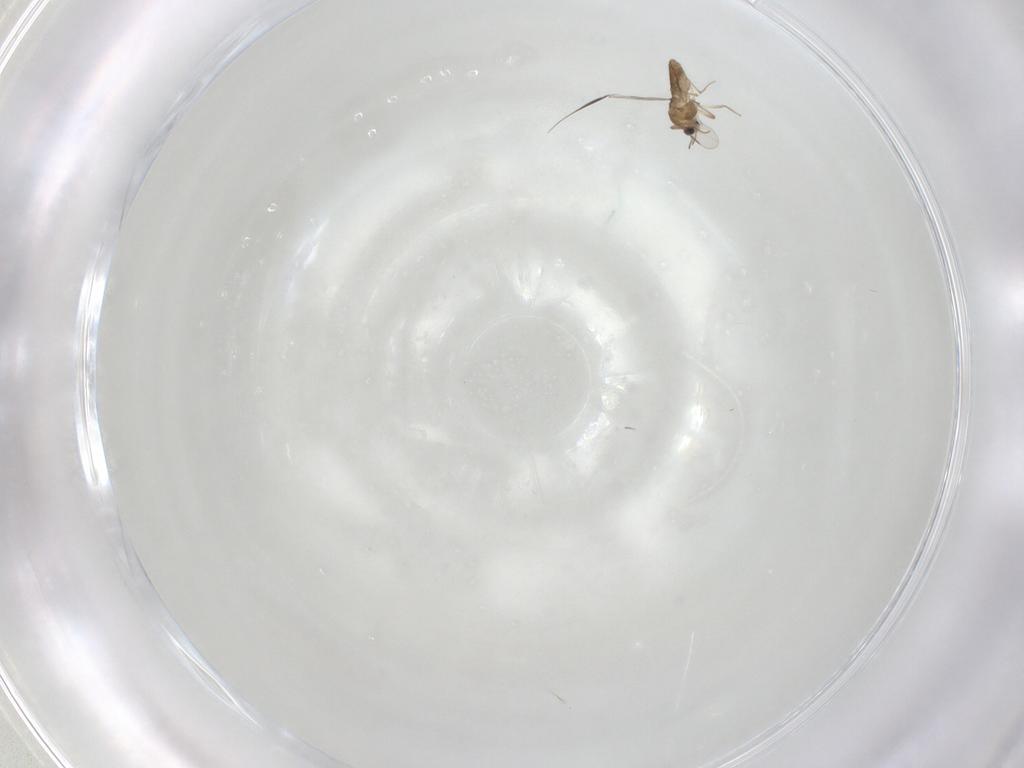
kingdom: Animalia
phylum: Arthropoda
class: Insecta
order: Diptera
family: Chironomidae
